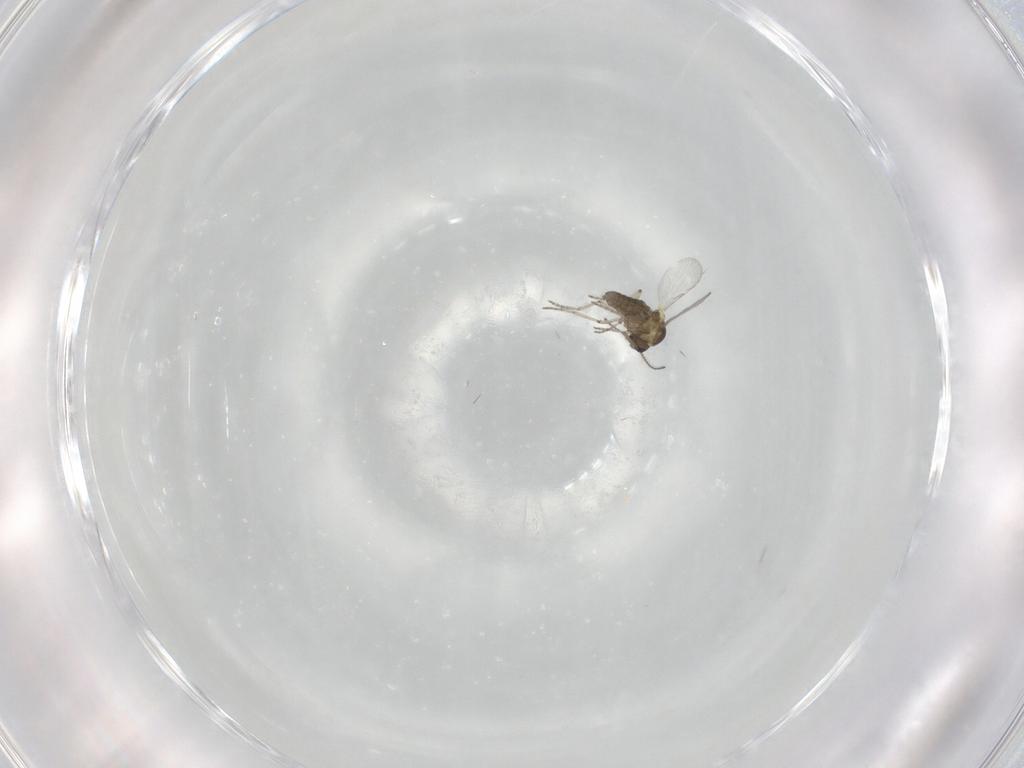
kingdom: Animalia
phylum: Arthropoda
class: Insecta
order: Diptera
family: Ceratopogonidae
